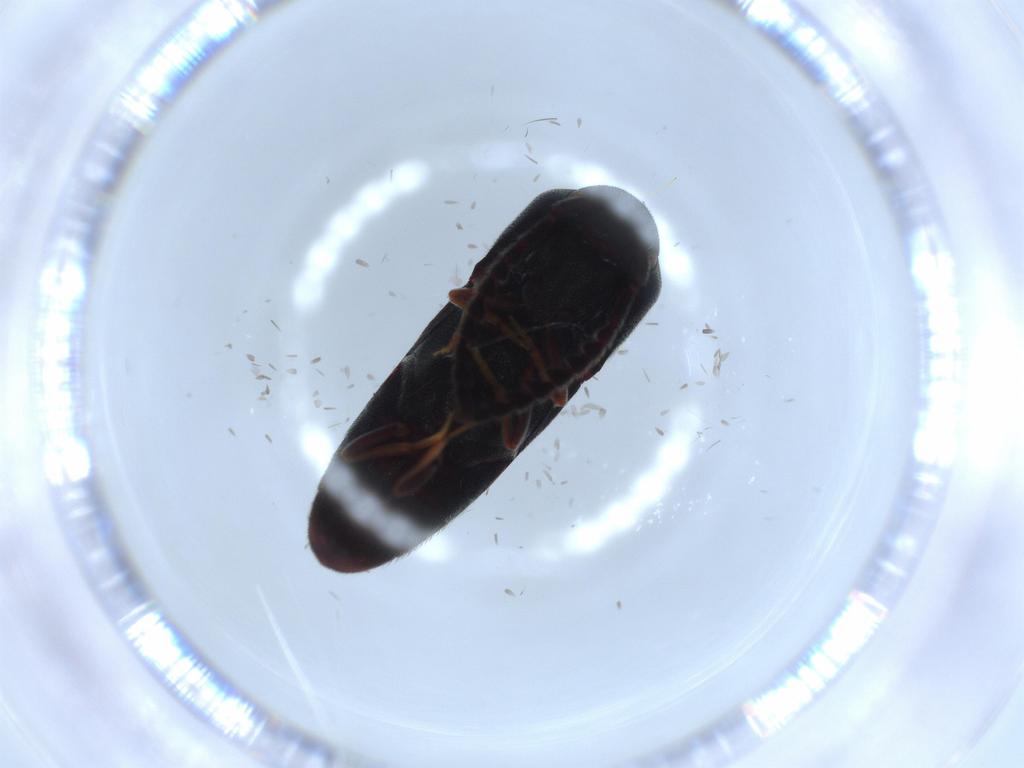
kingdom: Animalia
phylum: Arthropoda
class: Insecta
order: Coleoptera
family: Eucnemidae
